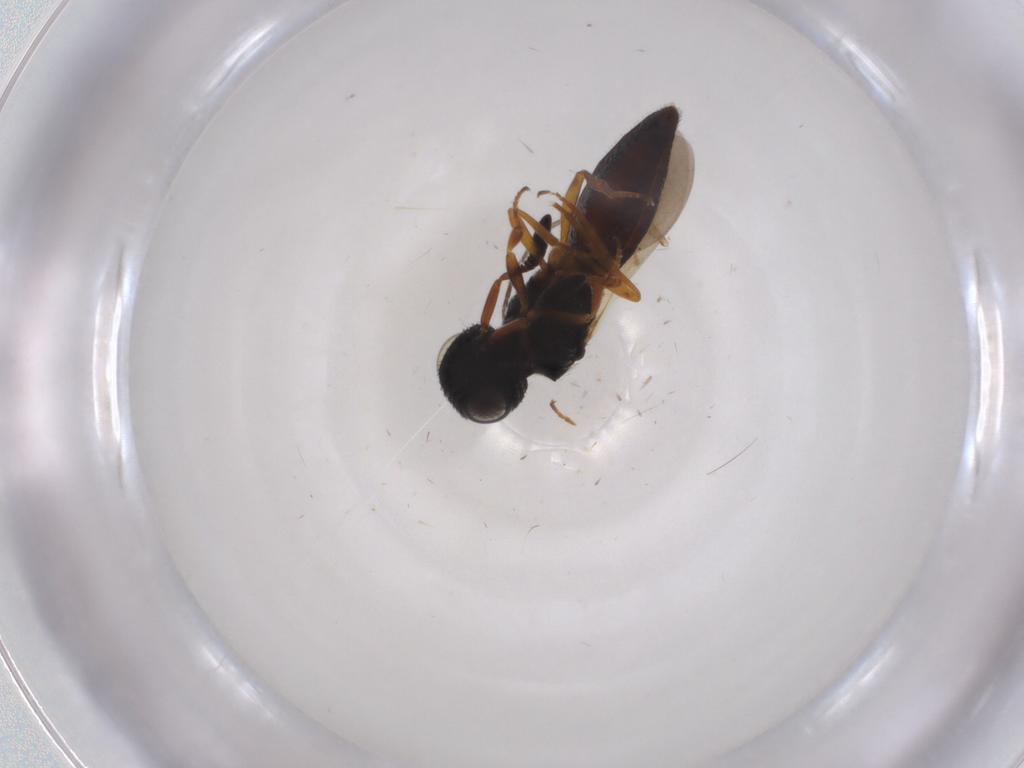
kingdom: Animalia
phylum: Arthropoda
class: Insecta
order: Hymenoptera
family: Scelionidae
